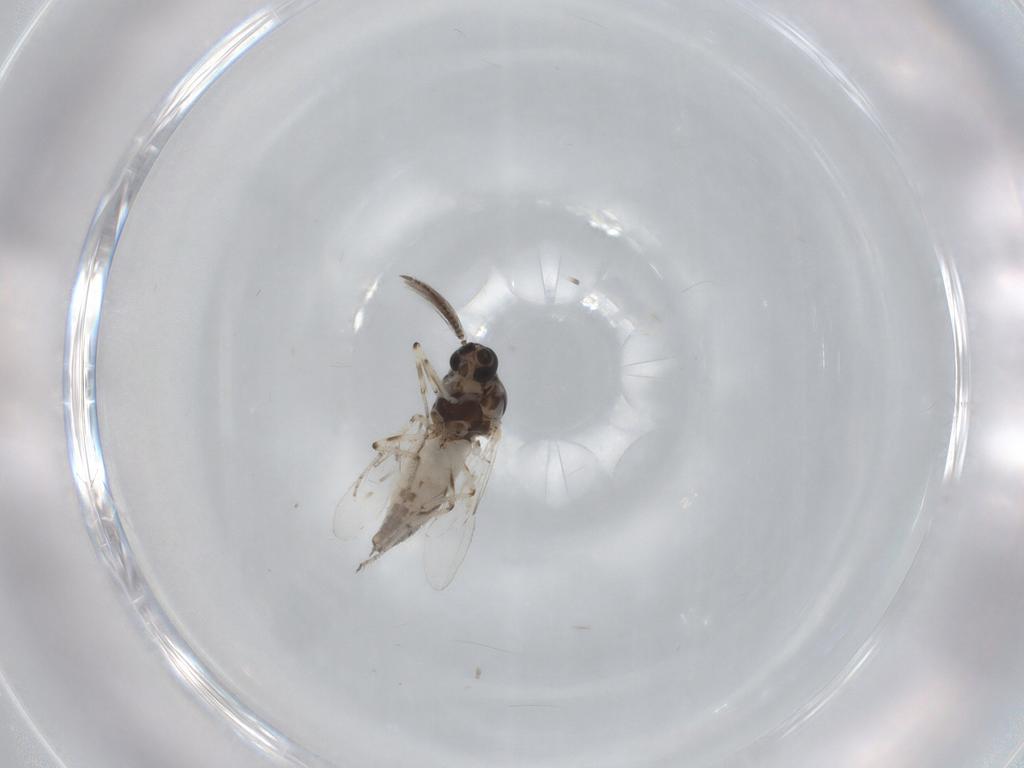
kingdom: Animalia
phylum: Arthropoda
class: Insecta
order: Diptera
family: Ceratopogonidae
